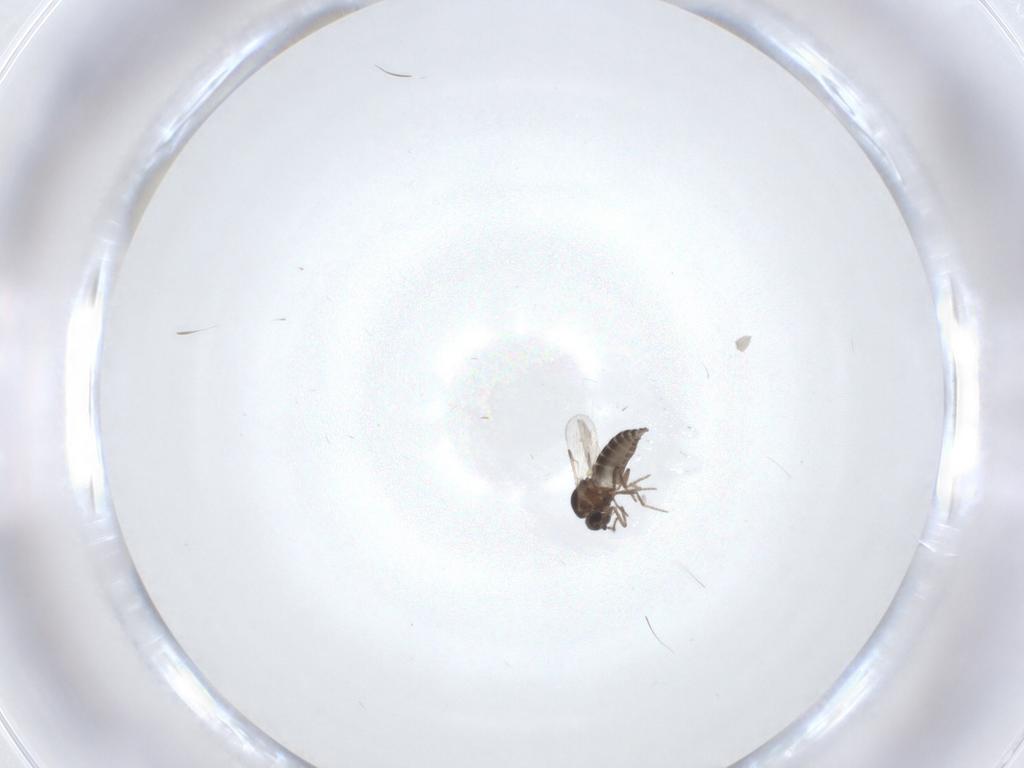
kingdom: Animalia
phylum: Arthropoda
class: Insecta
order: Diptera
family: Ceratopogonidae
